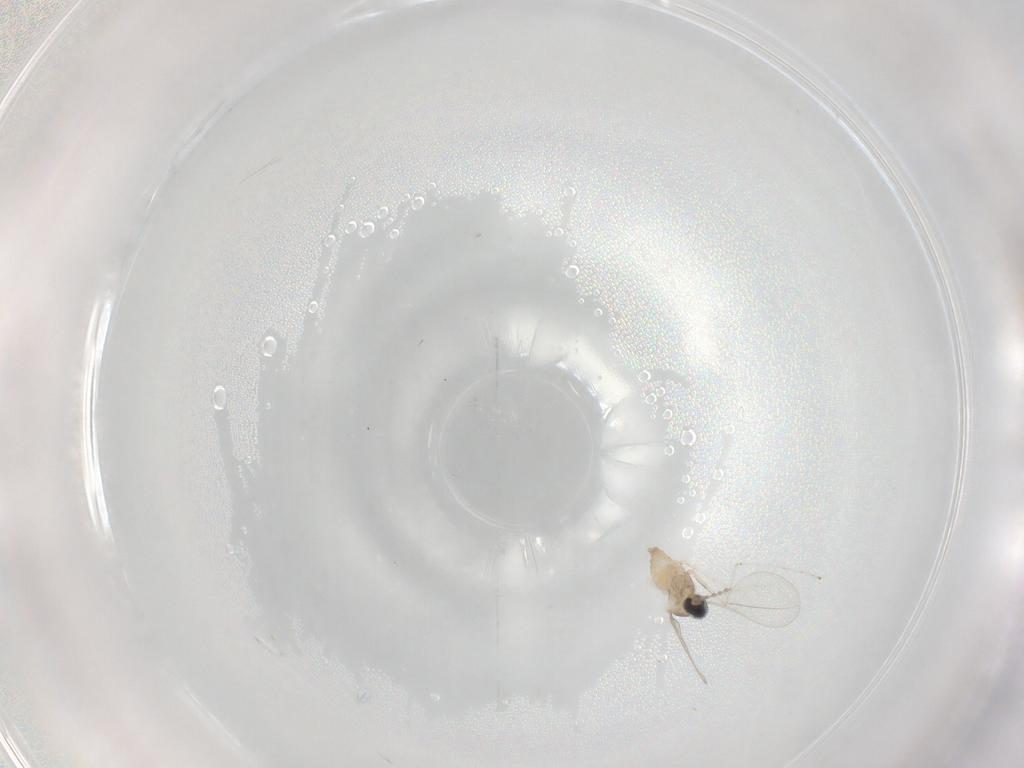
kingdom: Animalia
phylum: Arthropoda
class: Insecta
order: Diptera
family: Cecidomyiidae
